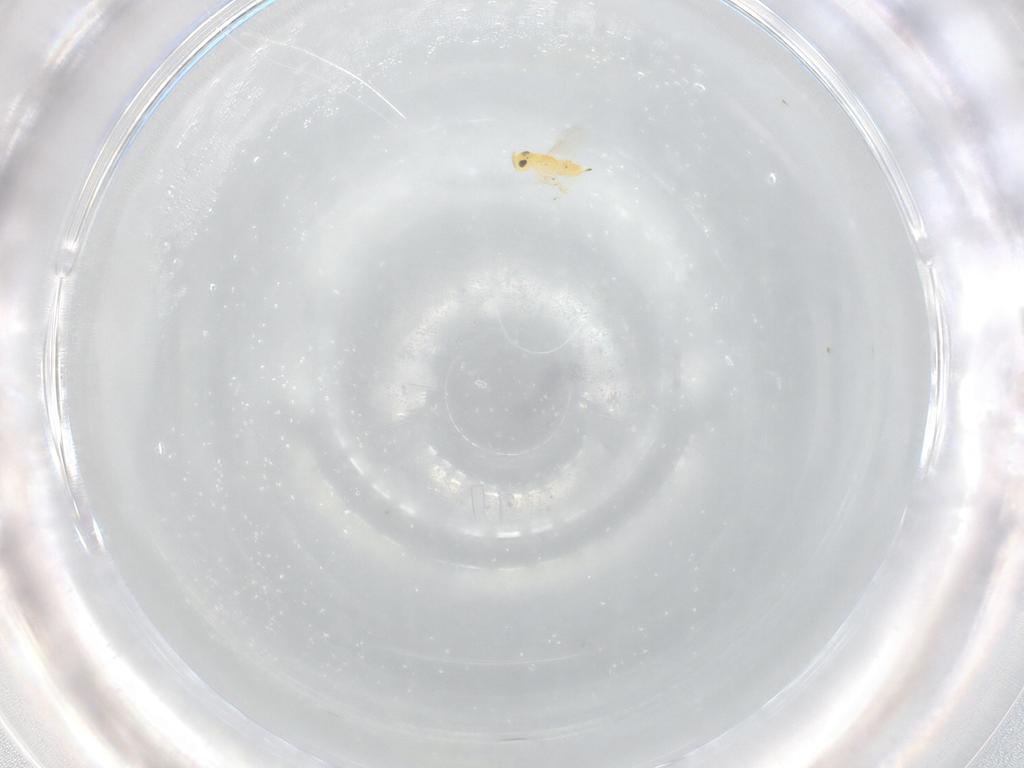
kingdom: Animalia
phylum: Arthropoda
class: Insecta
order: Hymenoptera
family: Encyrtidae
